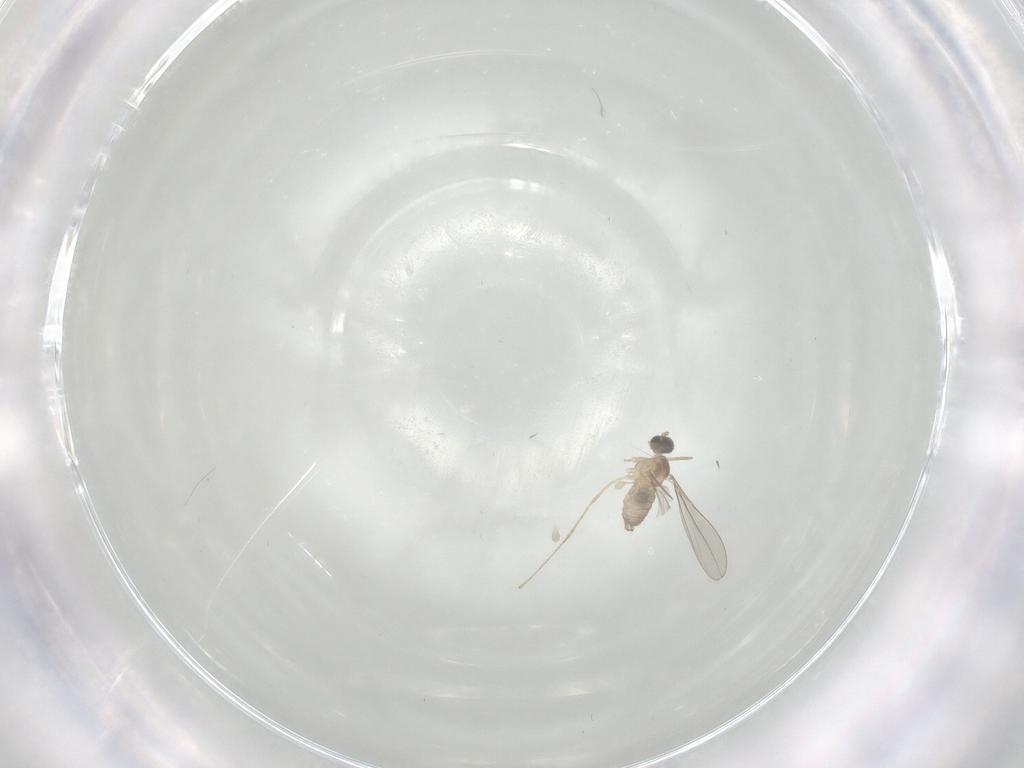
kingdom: Animalia
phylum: Arthropoda
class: Insecta
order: Diptera
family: Cecidomyiidae
